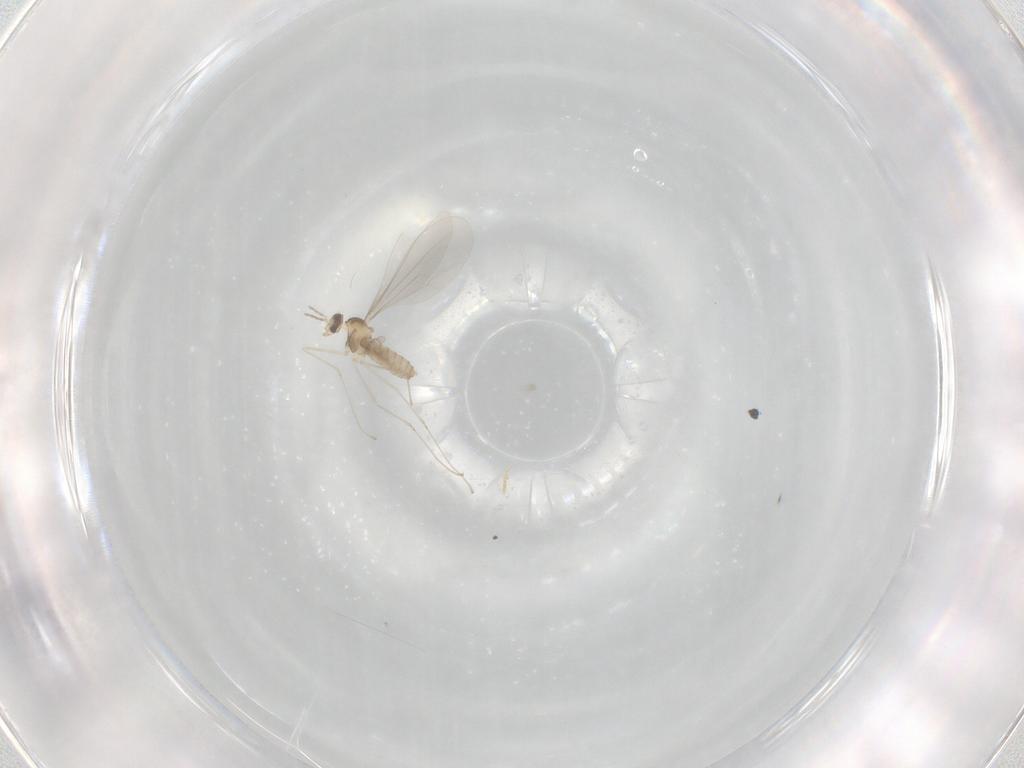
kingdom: Animalia
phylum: Arthropoda
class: Insecta
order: Diptera
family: Cecidomyiidae
